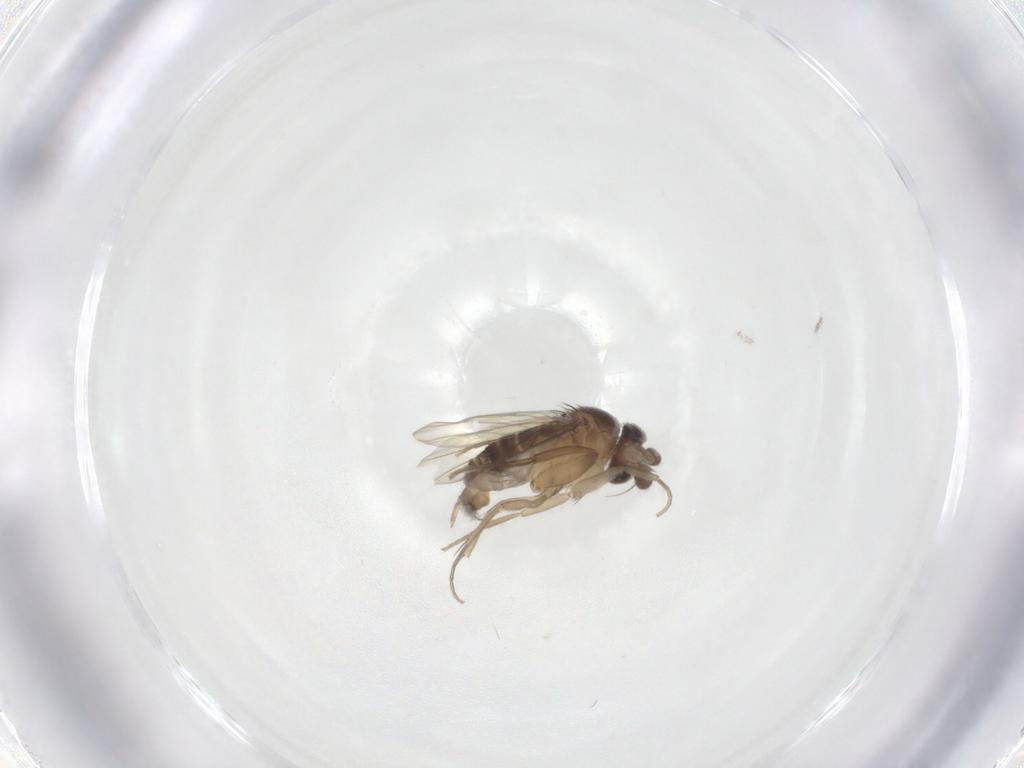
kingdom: Animalia
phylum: Arthropoda
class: Insecta
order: Diptera
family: Phoridae
